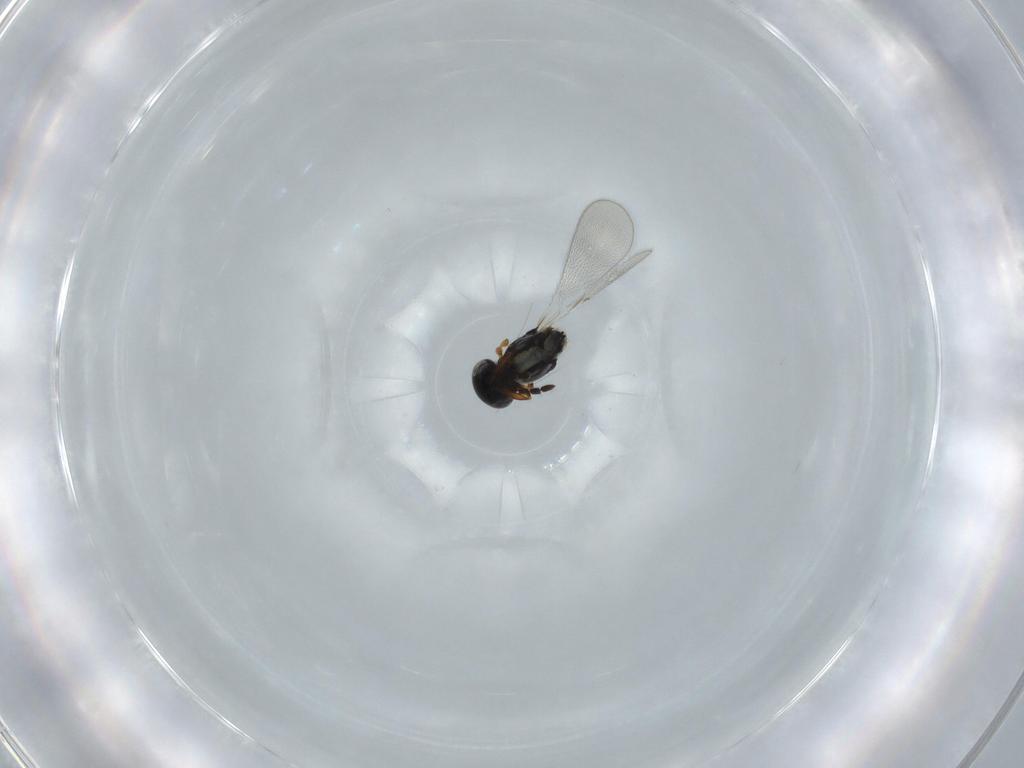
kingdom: Animalia
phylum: Arthropoda
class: Insecta
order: Hymenoptera
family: Platygastridae
